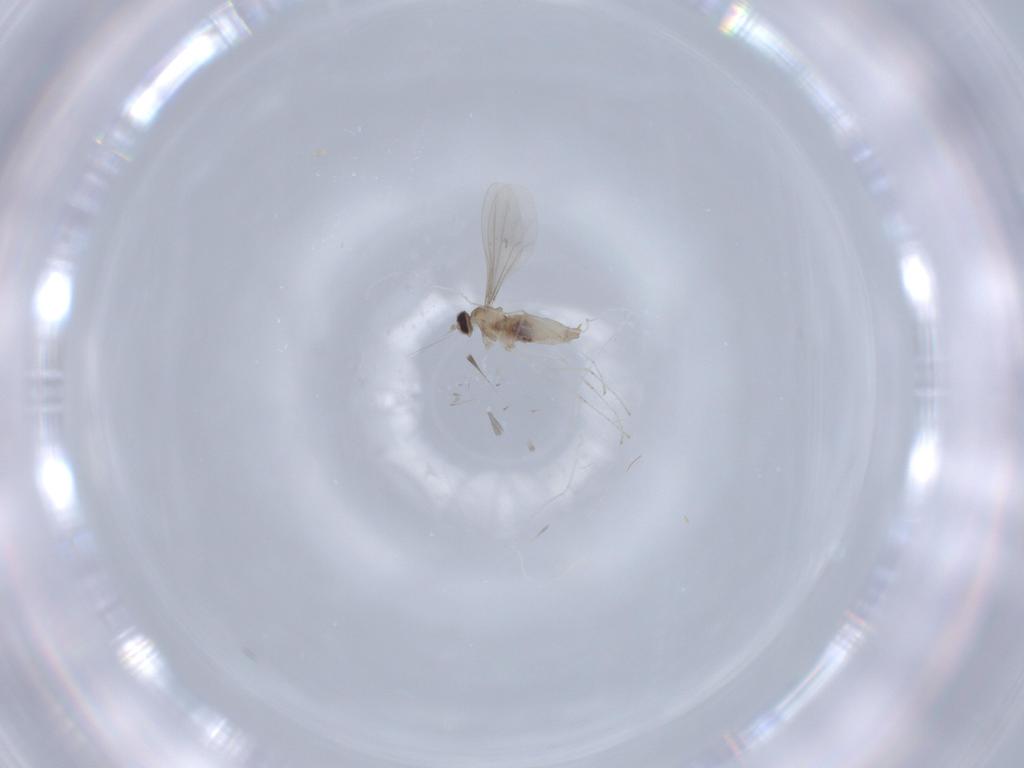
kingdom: Animalia
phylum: Arthropoda
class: Insecta
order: Diptera
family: Cecidomyiidae
